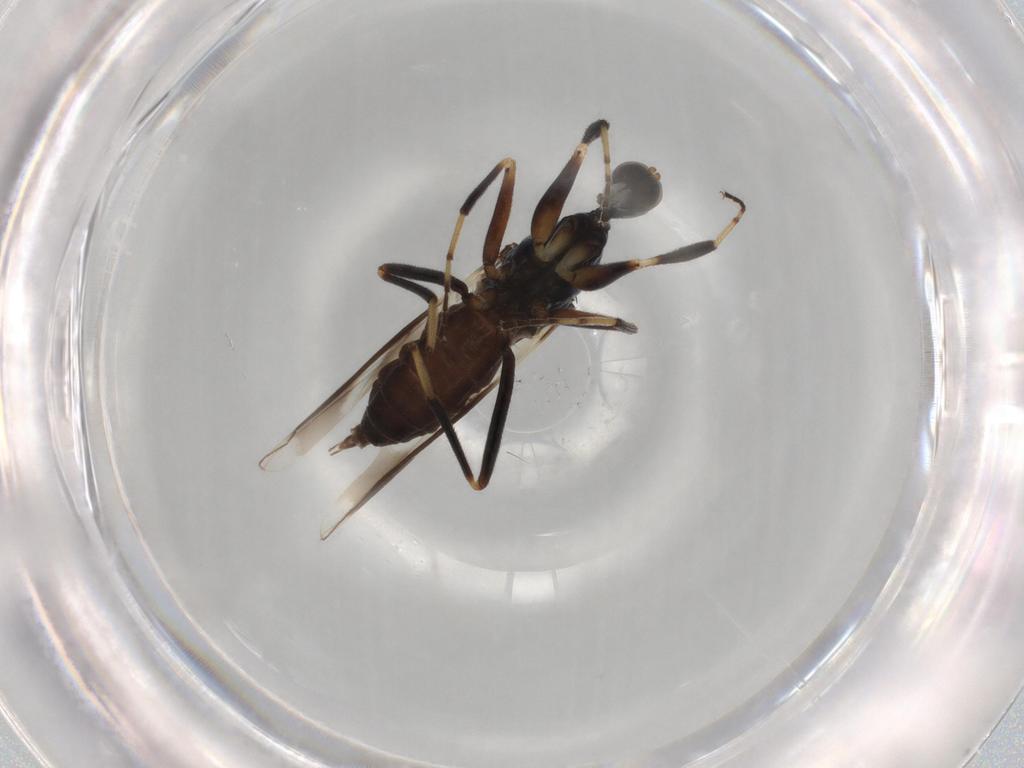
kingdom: Animalia
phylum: Arthropoda
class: Insecta
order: Diptera
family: Hybotidae
